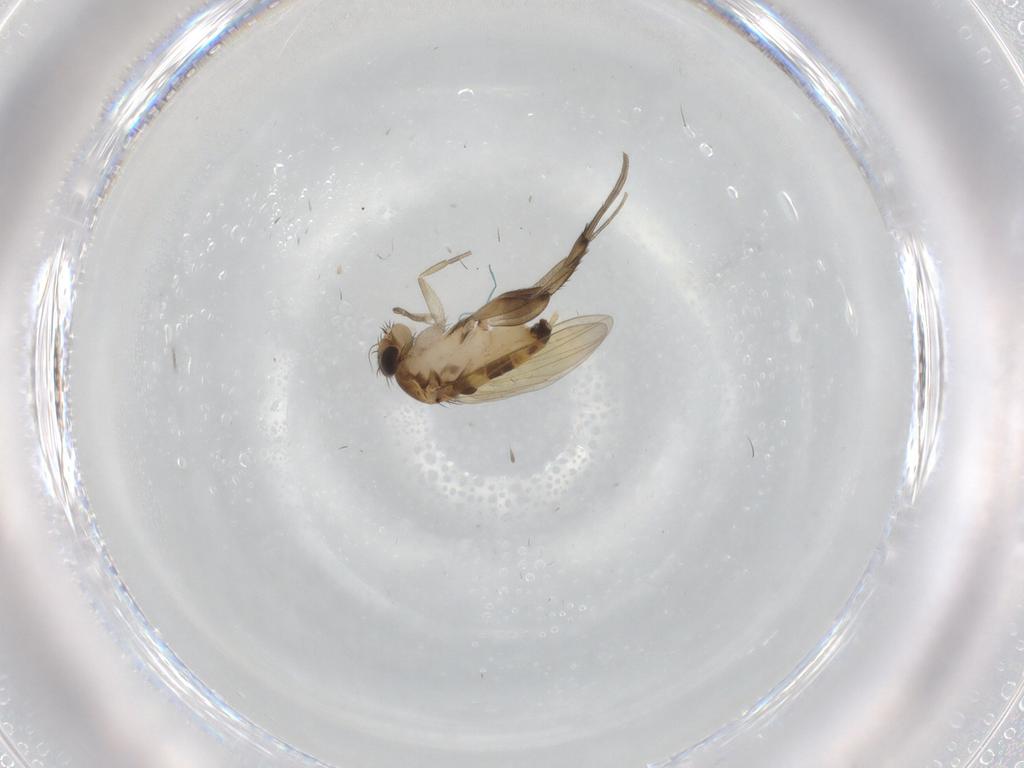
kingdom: Animalia
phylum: Arthropoda
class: Insecta
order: Diptera
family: Phoridae
